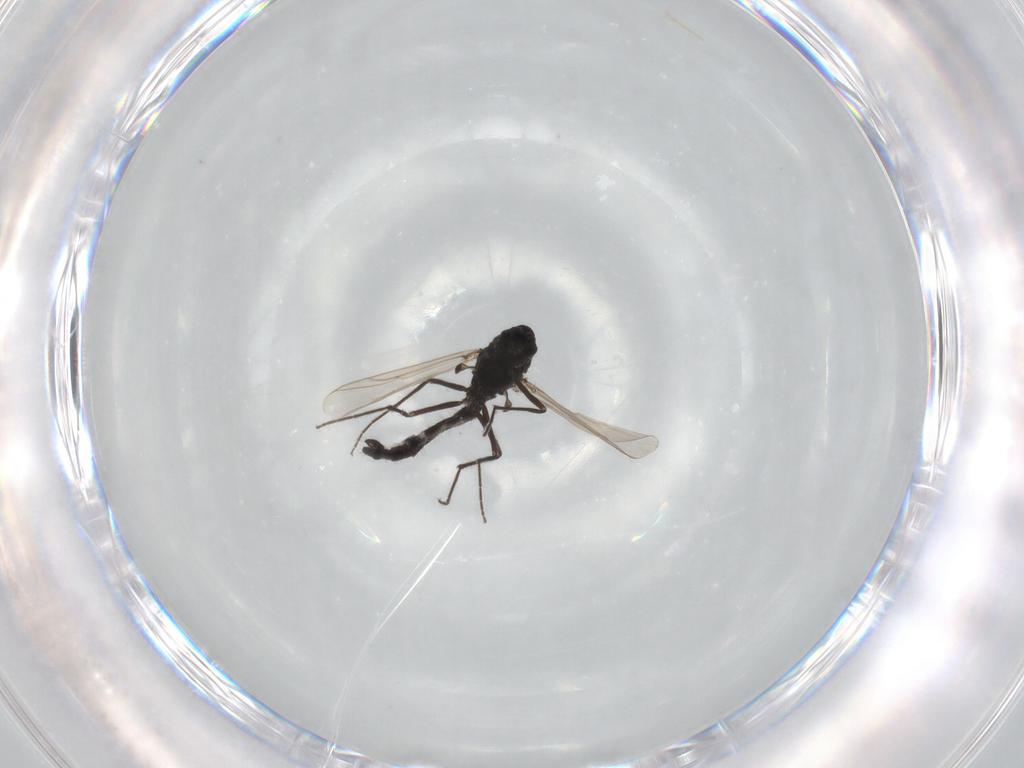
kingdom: Animalia
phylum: Arthropoda
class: Insecta
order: Diptera
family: Chironomidae
